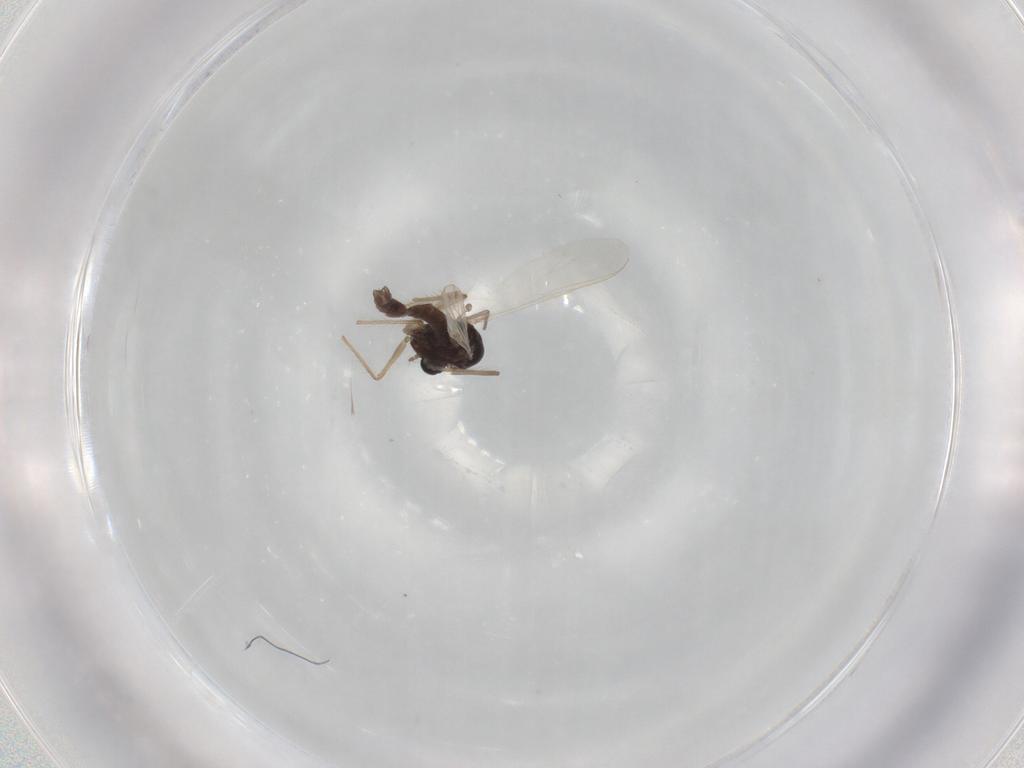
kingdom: Animalia
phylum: Arthropoda
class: Insecta
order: Diptera
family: Chironomidae
